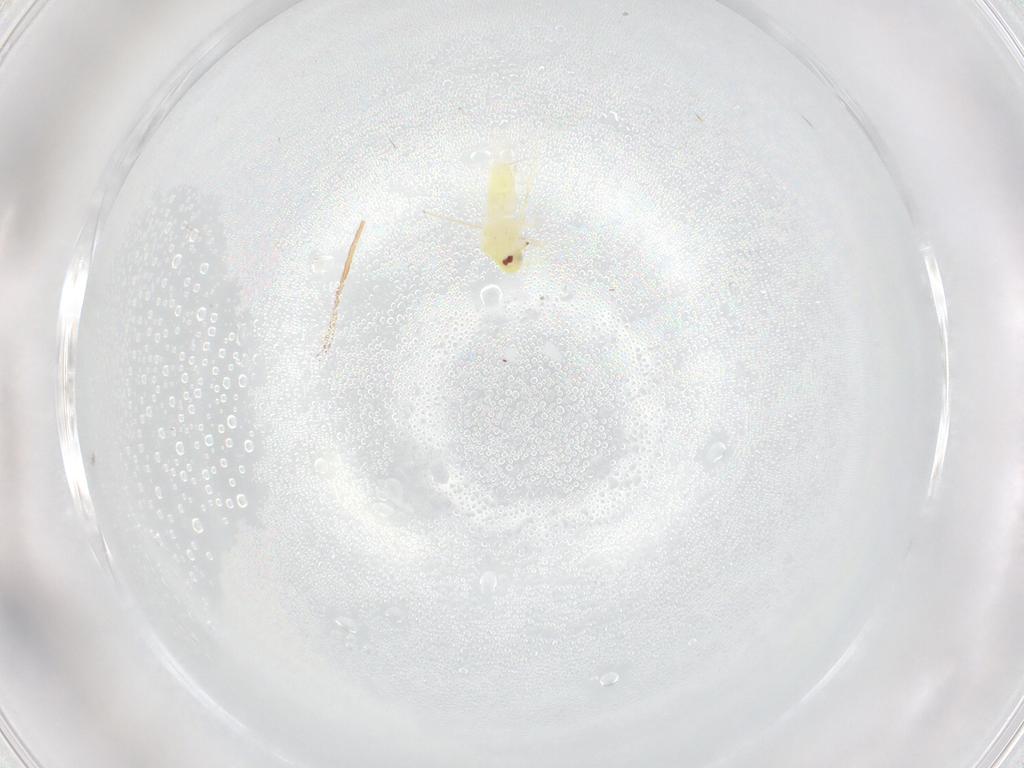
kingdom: Animalia
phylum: Arthropoda
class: Insecta
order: Hemiptera
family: Aleyrodidae
